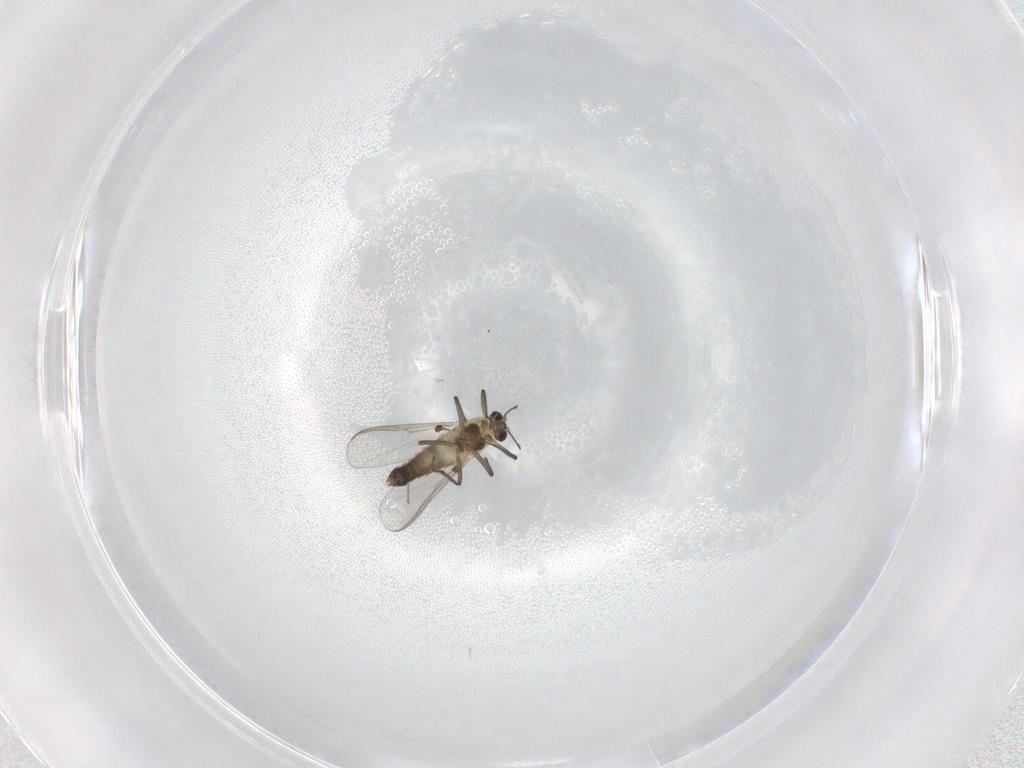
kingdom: Animalia
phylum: Arthropoda
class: Insecta
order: Diptera
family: Chironomidae
